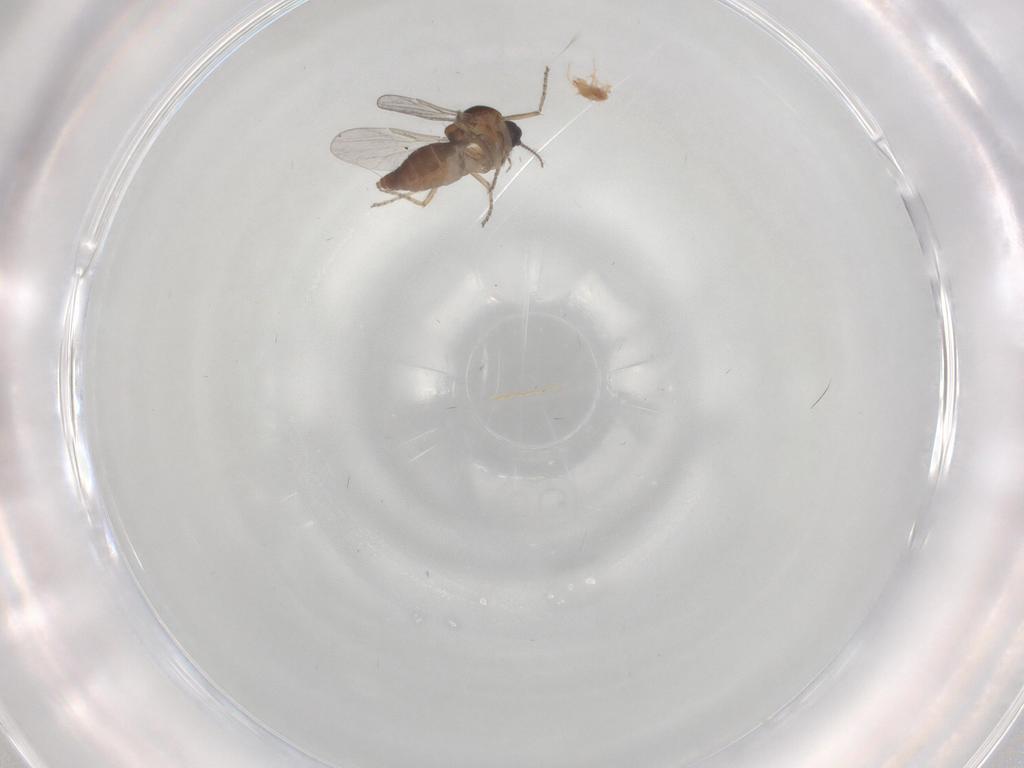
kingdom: Animalia
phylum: Arthropoda
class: Insecta
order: Diptera
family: Ceratopogonidae
